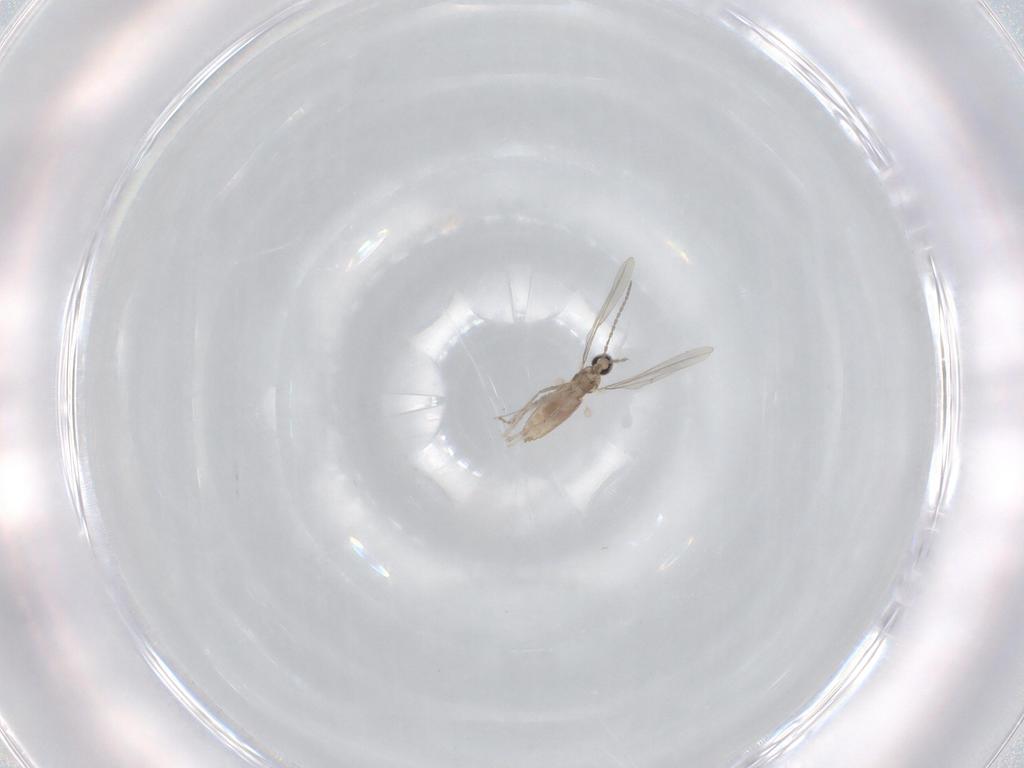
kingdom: Animalia
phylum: Arthropoda
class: Insecta
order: Diptera
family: Cecidomyiidae
